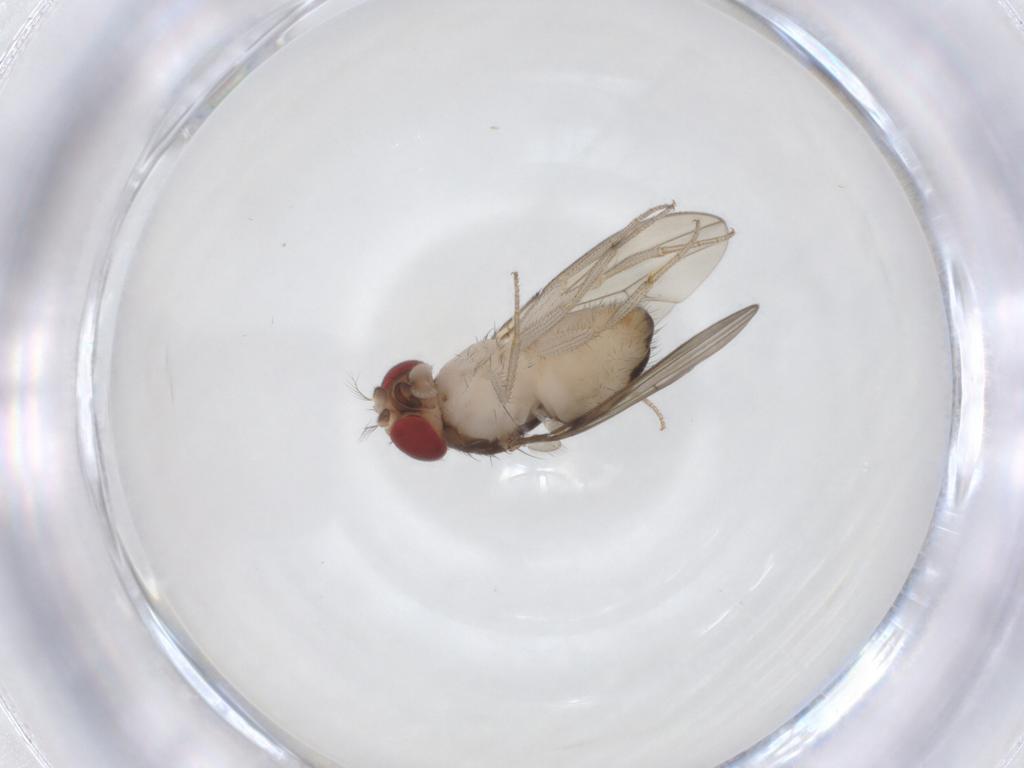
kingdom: Animalia
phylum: Arthropoda
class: Insecta
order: Diptera
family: Drosophilidae
